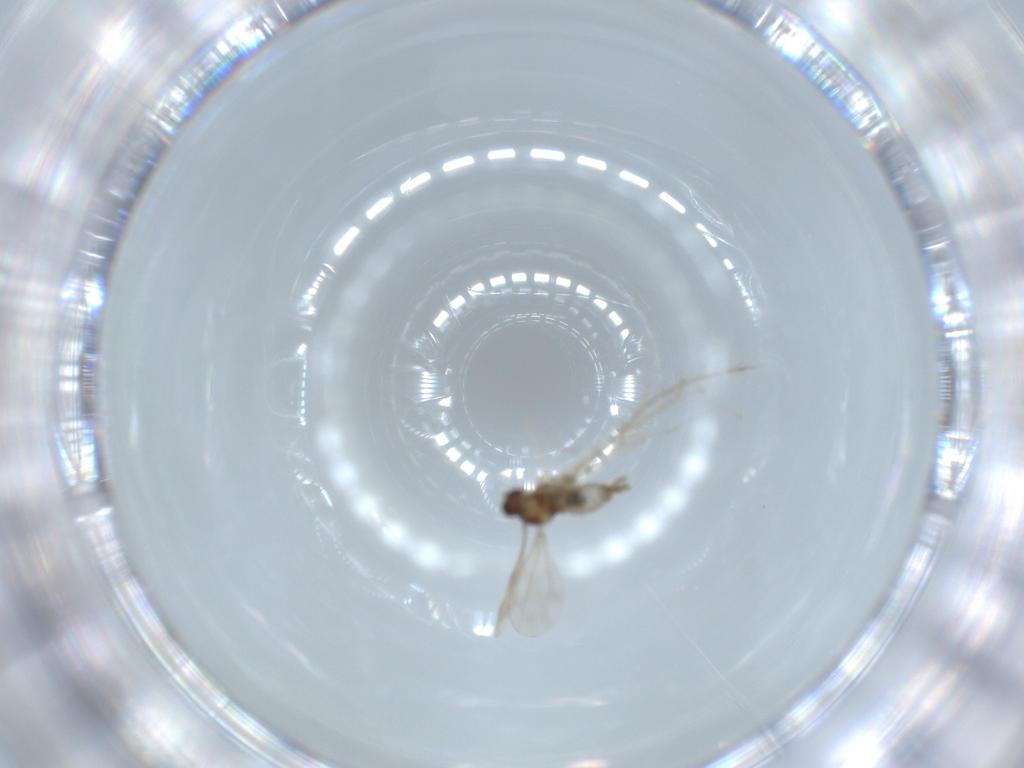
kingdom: Animalia
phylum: Arthropoda
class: Insecta
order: Diptera
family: Cecidomyiidae
